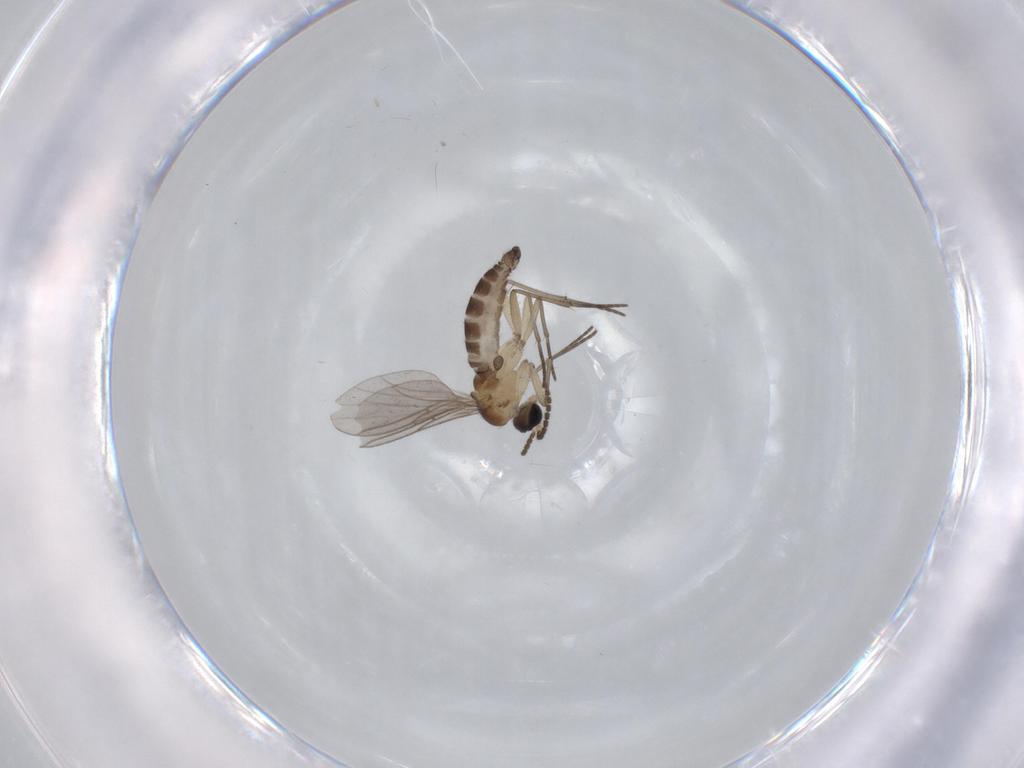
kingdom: Animalia
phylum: Arthropoda
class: Insecta
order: Diptera
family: Sciaridae
